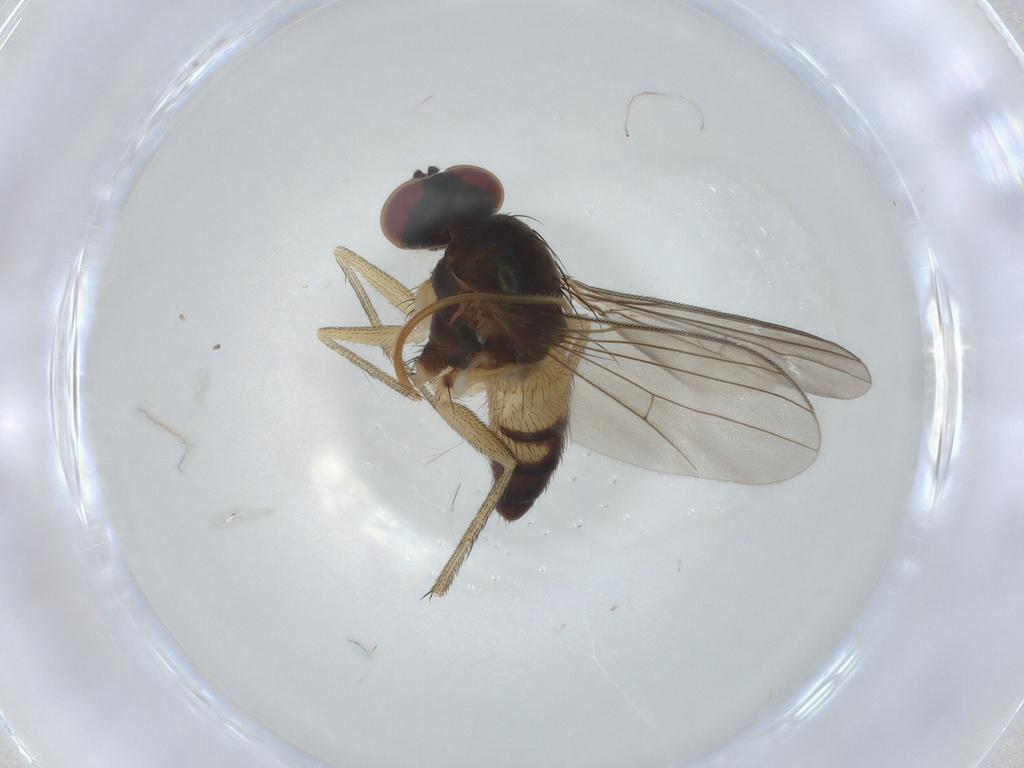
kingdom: Animalia
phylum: Arthropoda
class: Insecta
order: Diptera
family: Dolichopodidae
